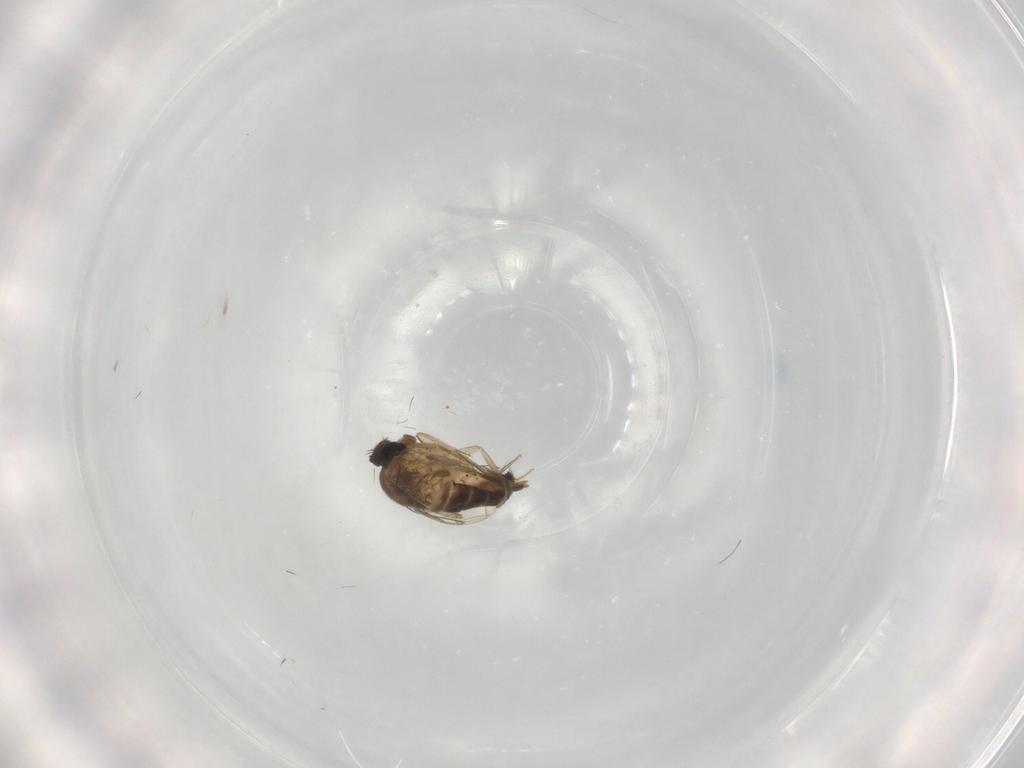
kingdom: Animalia
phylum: Arthropoda
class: Insecta
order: Diptera
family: Phoridae
